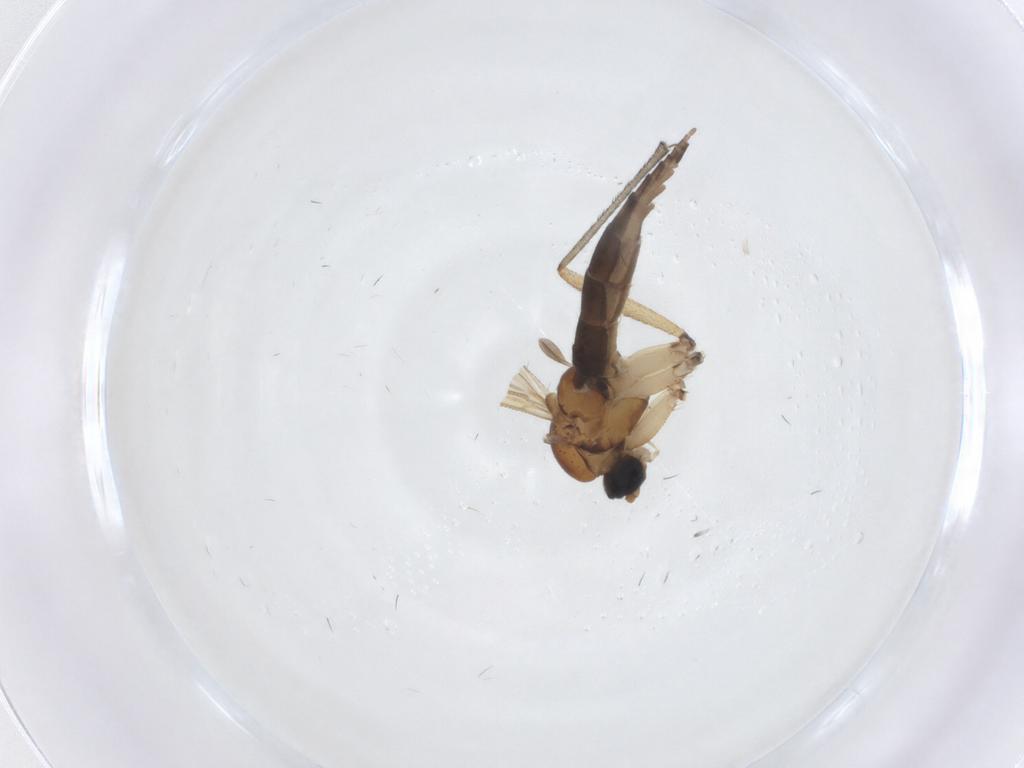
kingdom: Animalia
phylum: Arthropoda
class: Insecta
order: Diptera
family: Sciaridae
